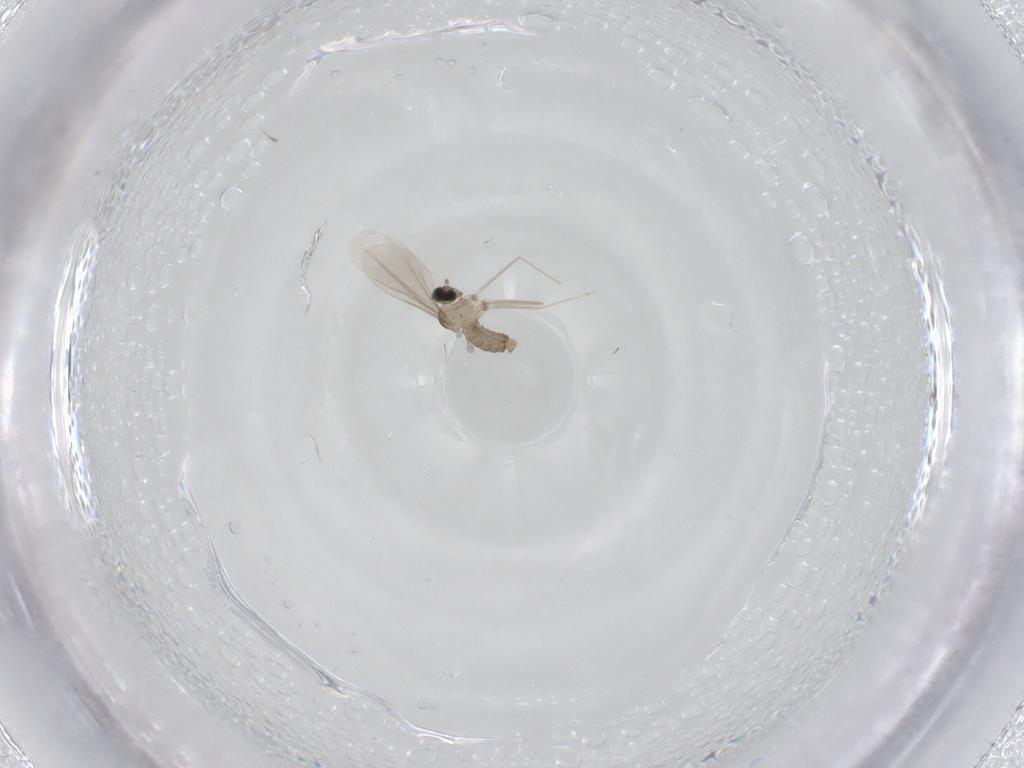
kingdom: Animalia
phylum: Arthropoda
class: Insecta
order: Diptera
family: Cecidomyiidae
